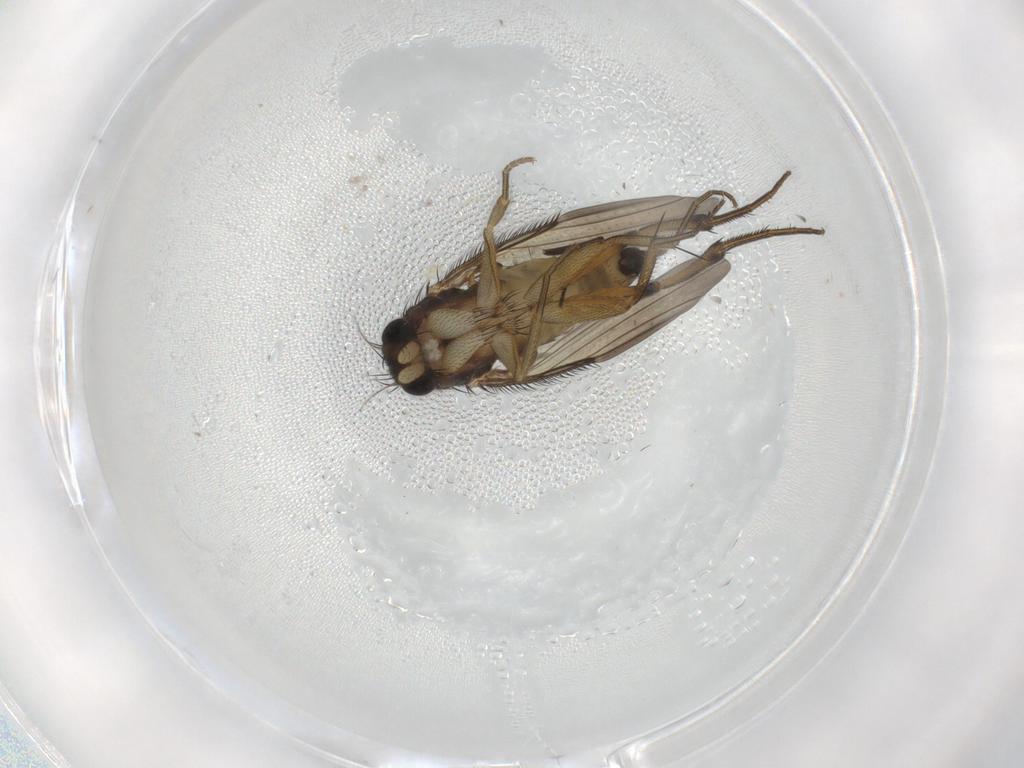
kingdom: Animalia
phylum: Arthropoda
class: Insecta
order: Diptera
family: Phoridae
